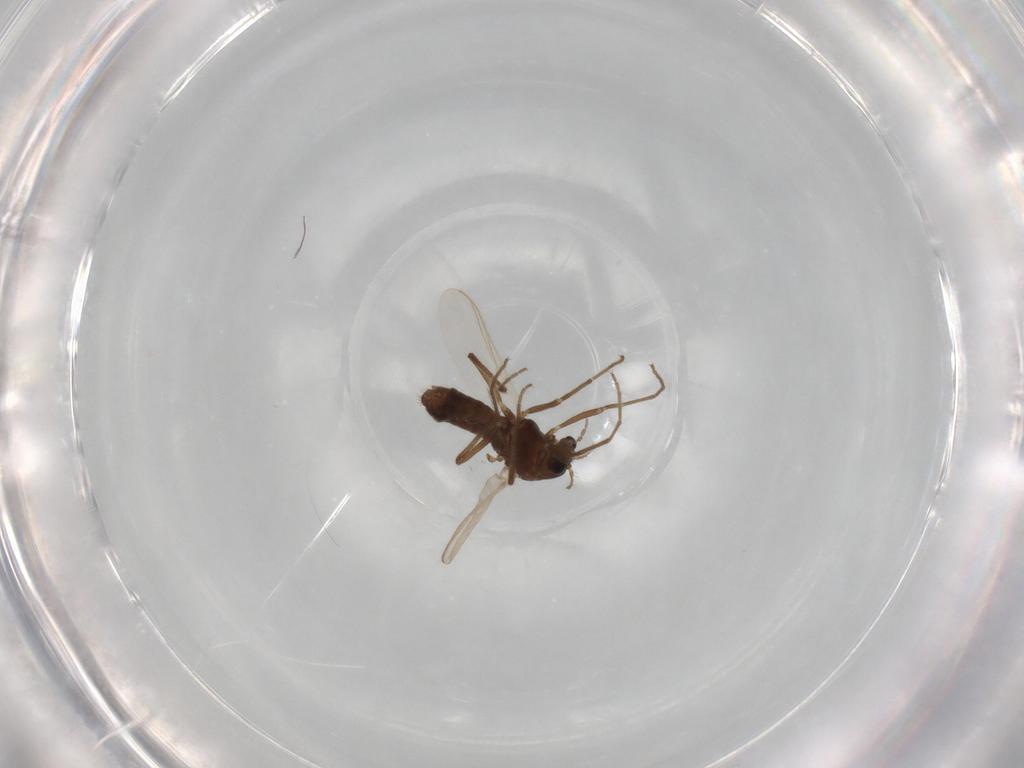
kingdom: Animalia
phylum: Arthropoda
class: Insecta
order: Diptera
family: Chironomidae
